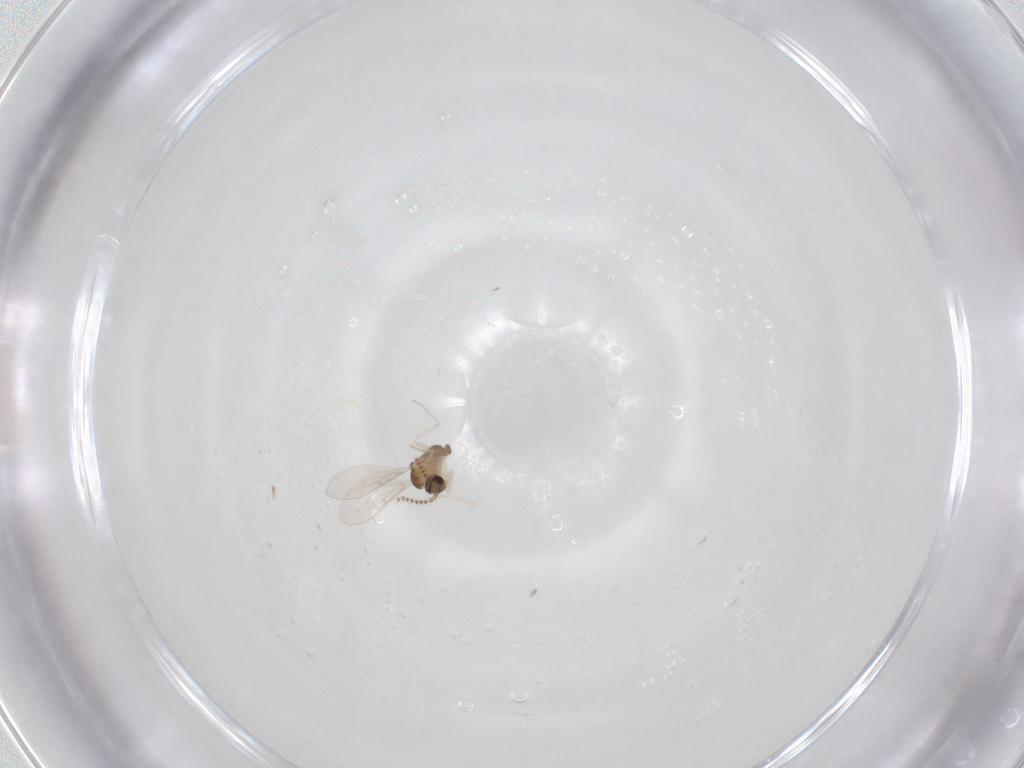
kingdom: Animalia
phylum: Arthropoda
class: Insecta
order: Diptera
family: Cecidomyiidae
